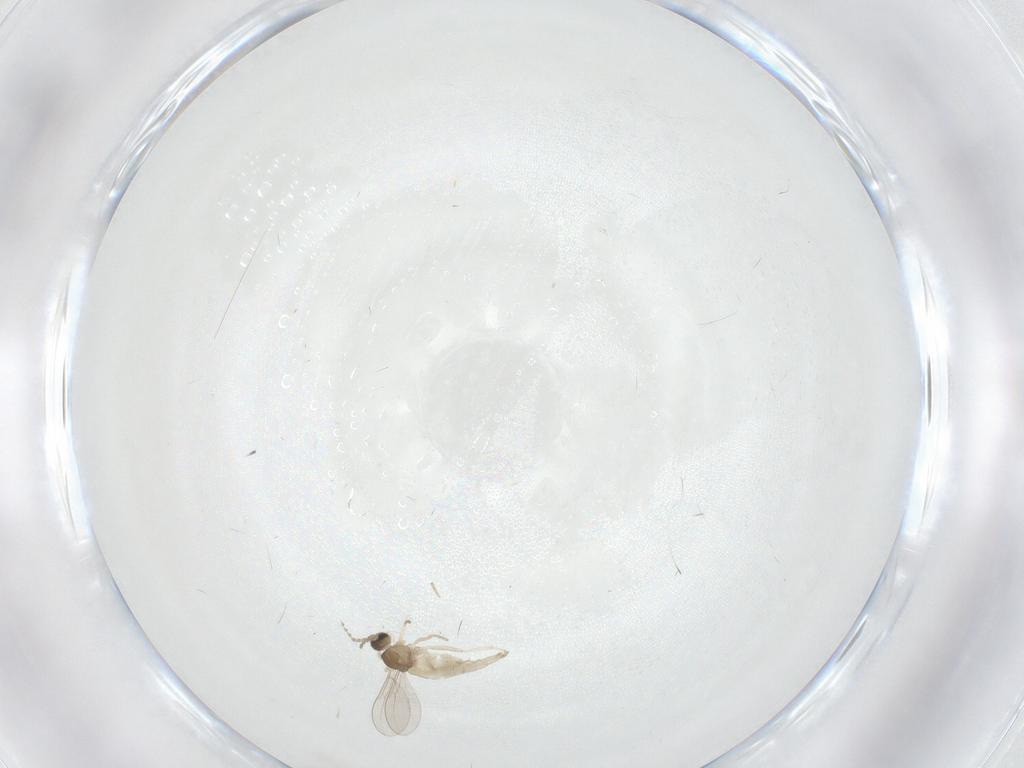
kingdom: Animalia
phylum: Arthropoda
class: Insecta
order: Diptera
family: Cecidomyiidae
